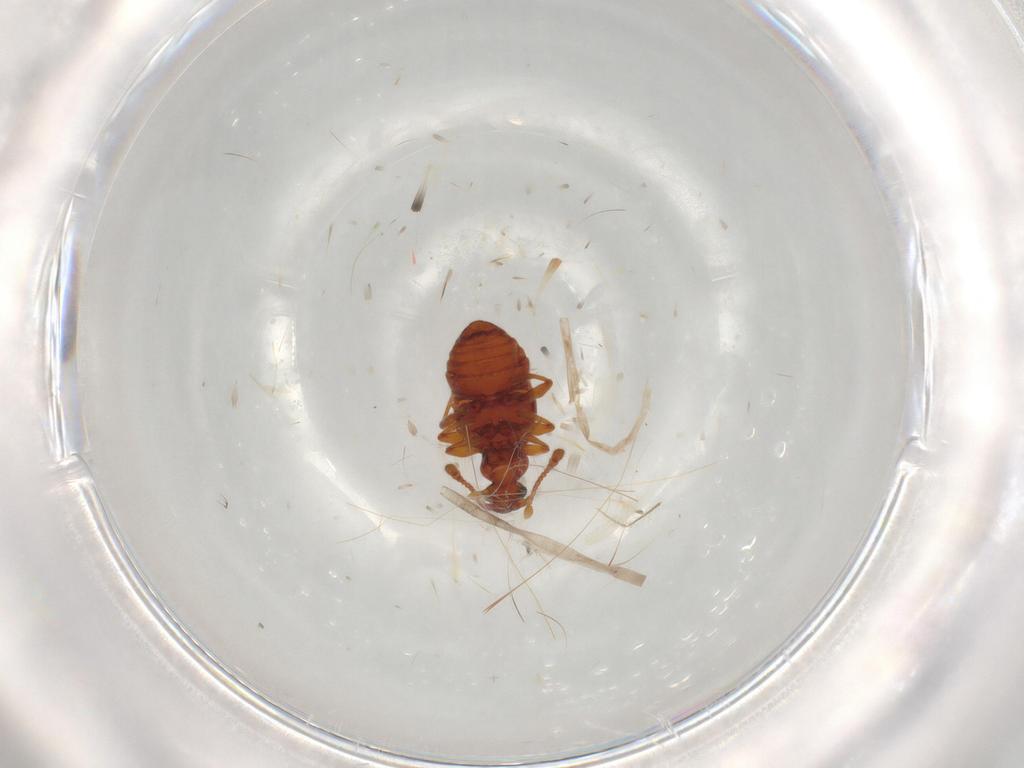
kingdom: Animalia
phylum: Arthropoda
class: Insecta
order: Coleoptera
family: Staphylinidae
